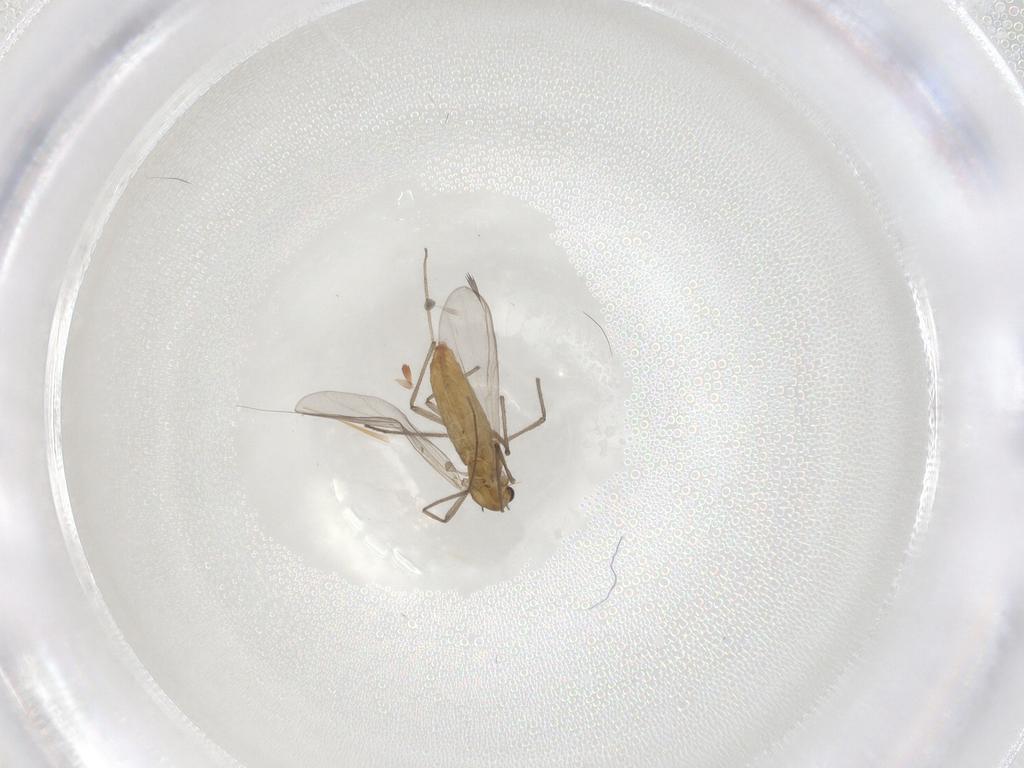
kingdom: Animalia
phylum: Arthropoda
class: Insecta
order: Diptera
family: Chironomidae
